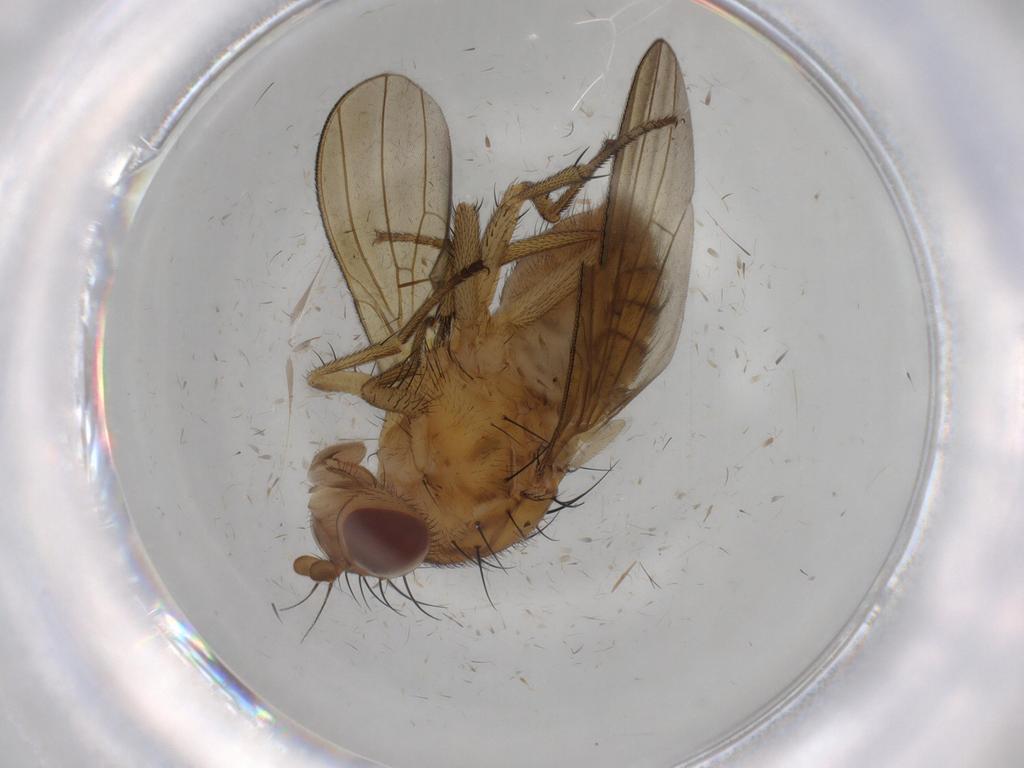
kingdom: Animalia
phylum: Arthropoda
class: Insecta
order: Diptera
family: Limoniidae
